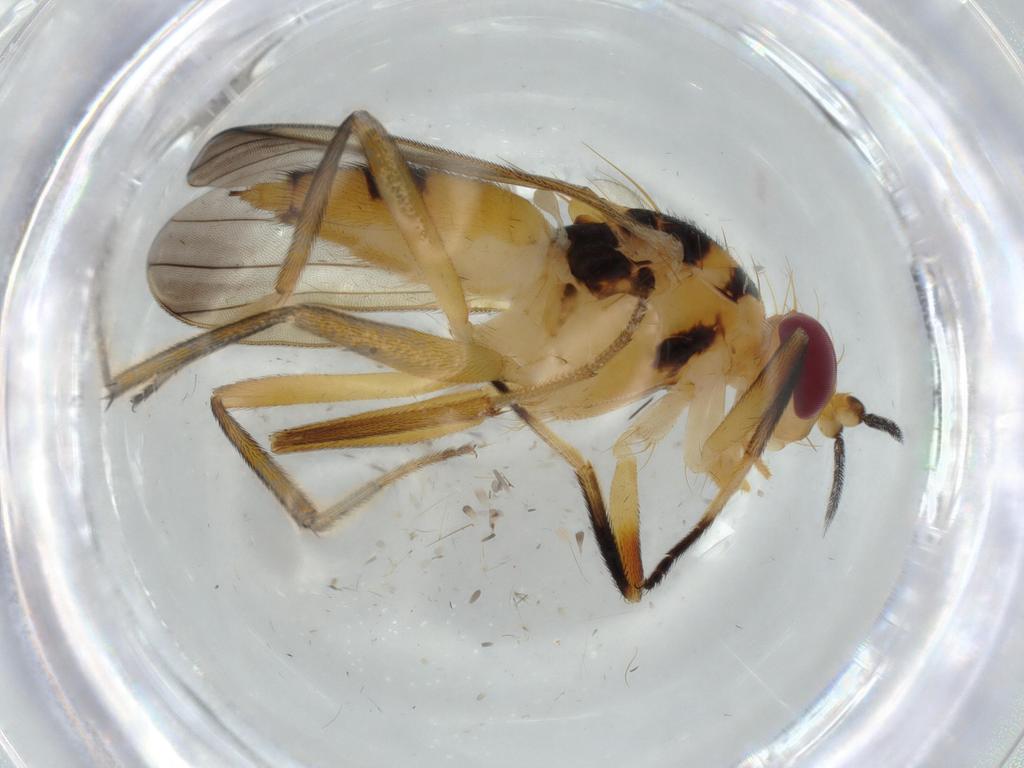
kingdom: Animalia
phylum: Arthropoda
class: Insecta
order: Diptera
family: Clusiidae
